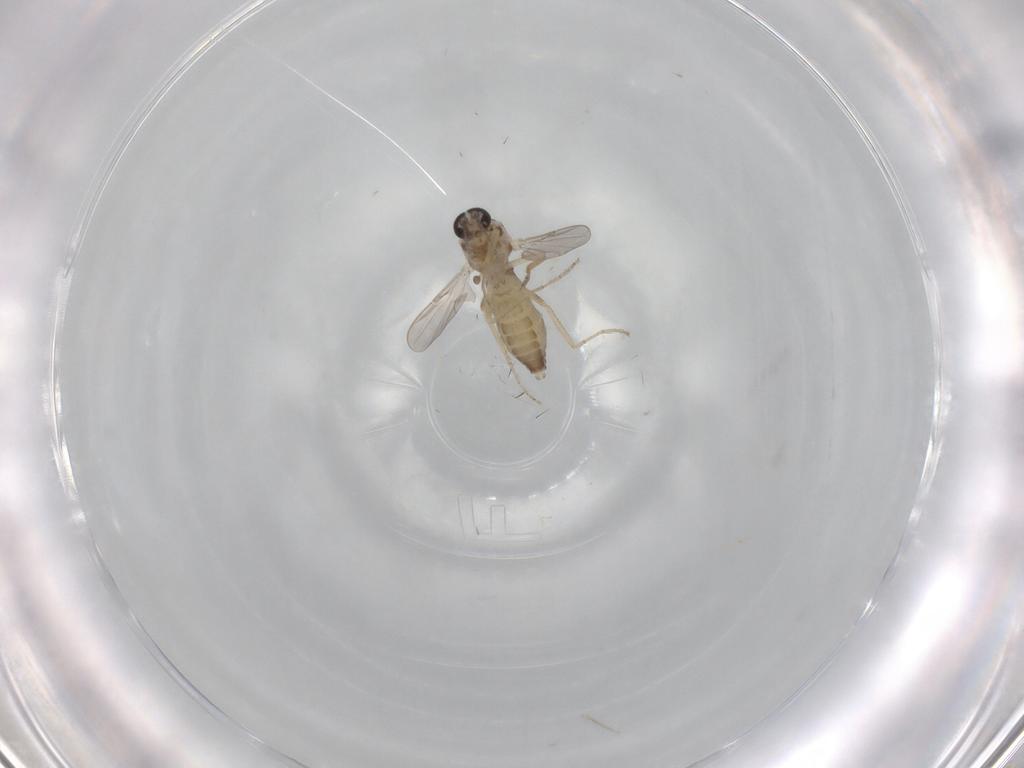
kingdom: Animalia
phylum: Arthropoda
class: Insecta
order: Diptera
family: Ceratopogonidae
